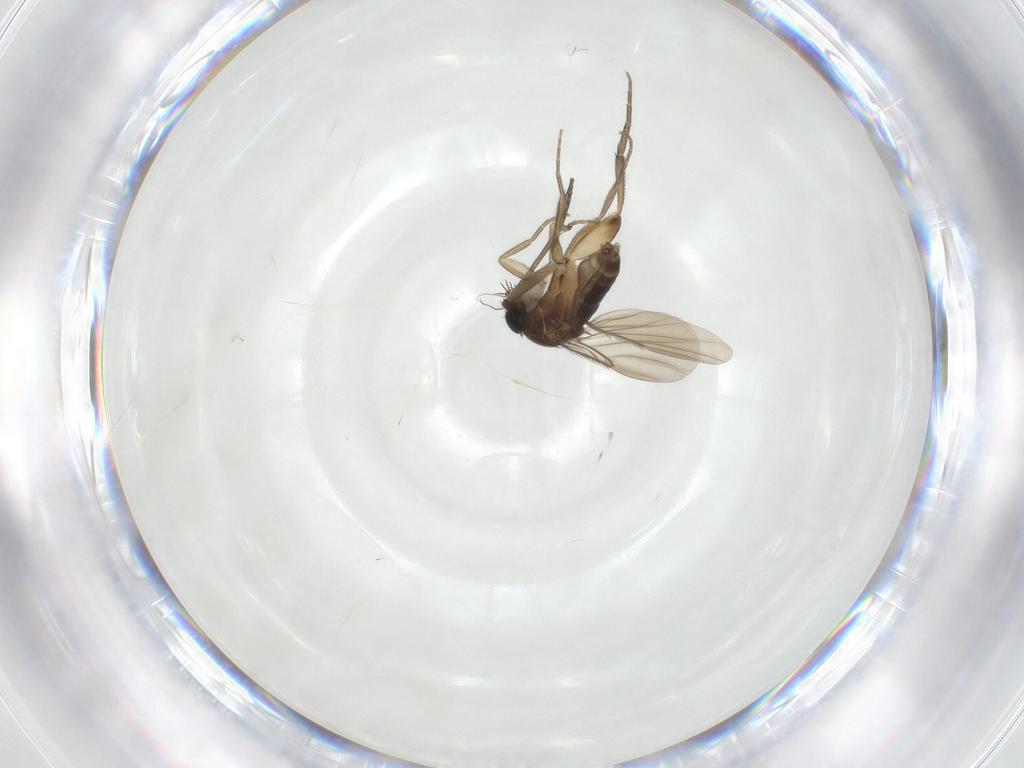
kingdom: Animalia
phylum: Arthropoda
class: Insecta
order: Diptera
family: Phoridae
